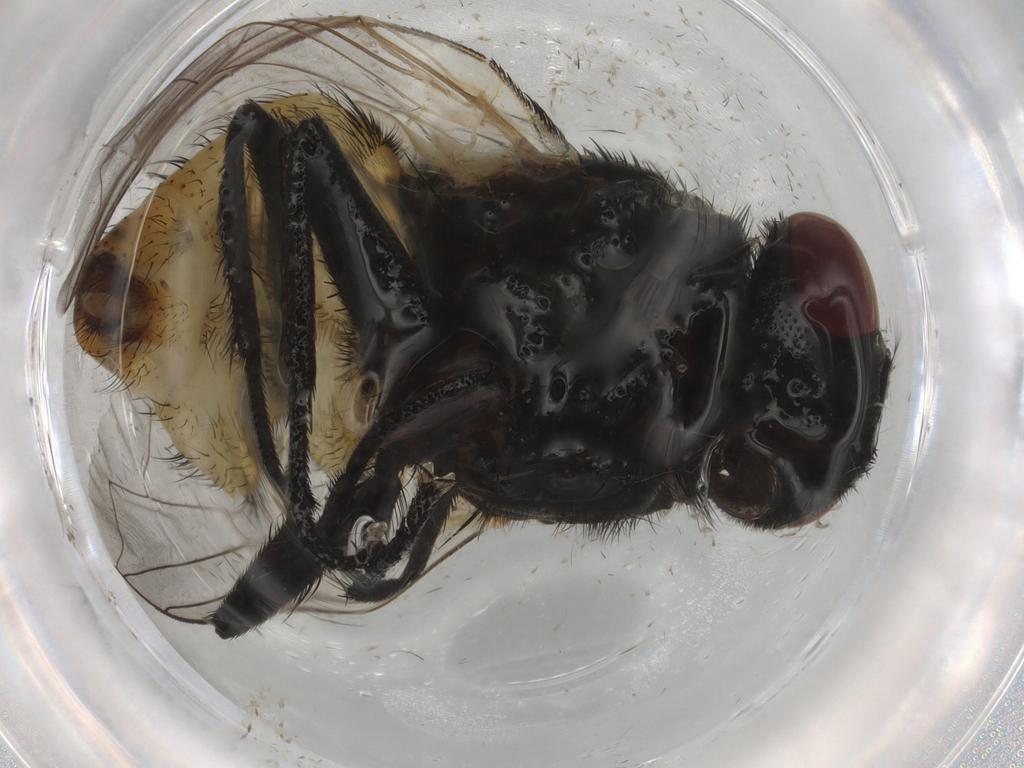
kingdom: Animalia
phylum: Arthropoda
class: Insecta
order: Diptera
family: Muscidae
